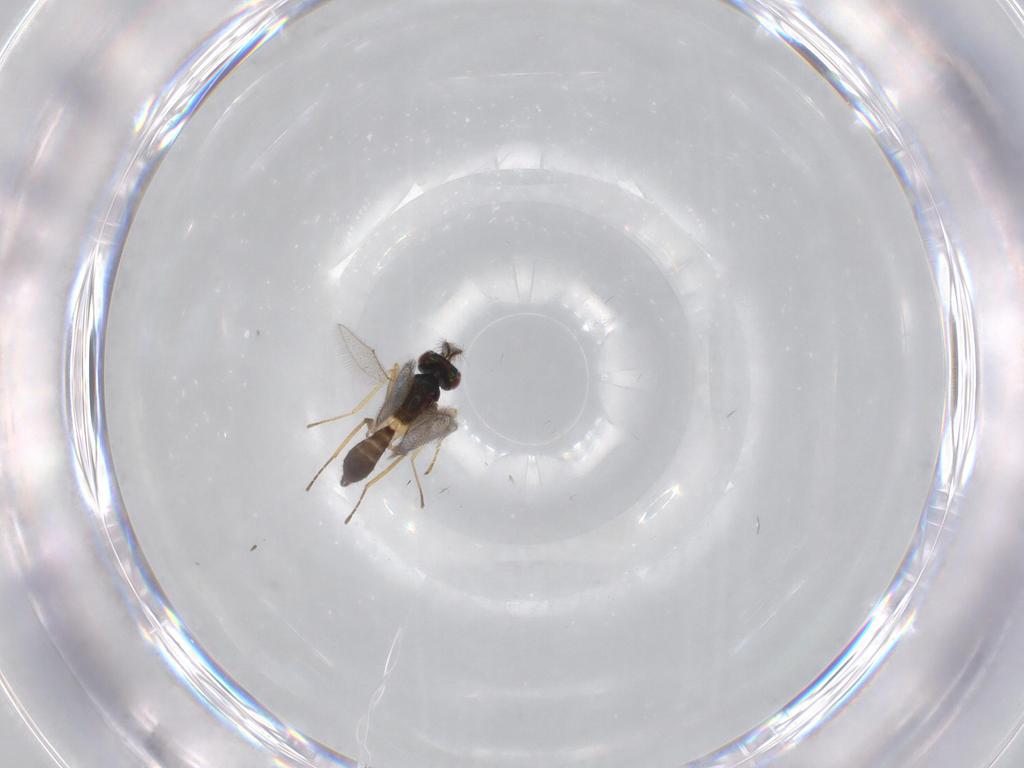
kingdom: Animalia
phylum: Arthropoda
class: Insecta
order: Hymenoptera
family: Eulophidae
